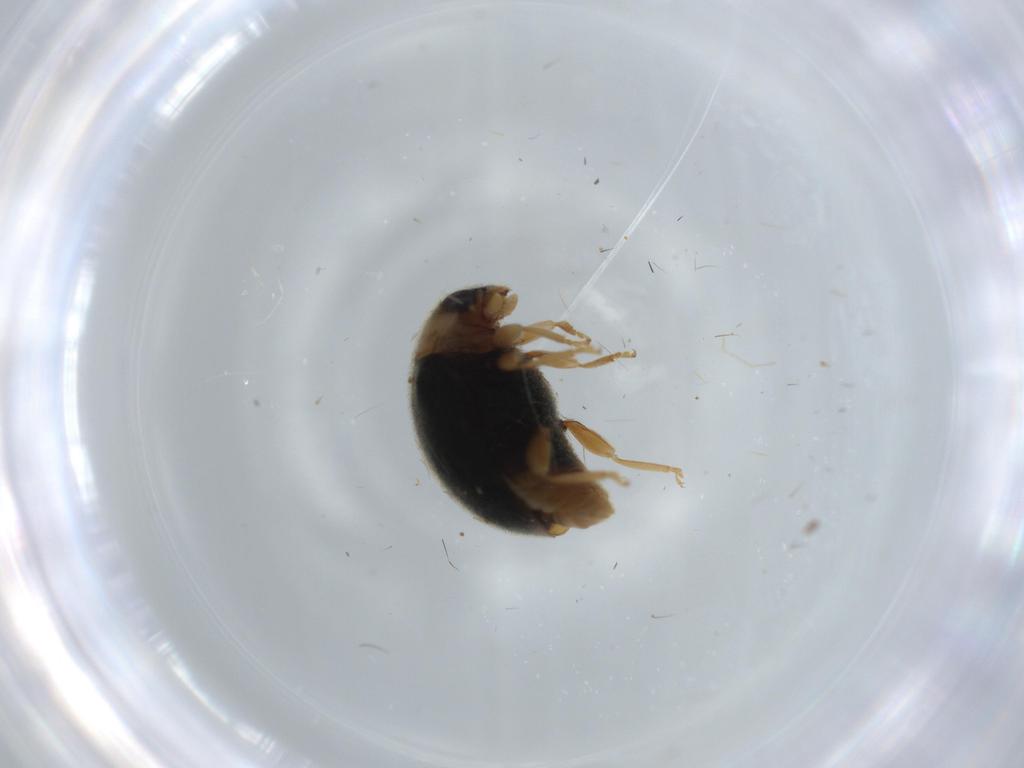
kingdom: Animalia
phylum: Arthropoda
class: Insecta
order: Coleoptera
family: Coccinellidae
